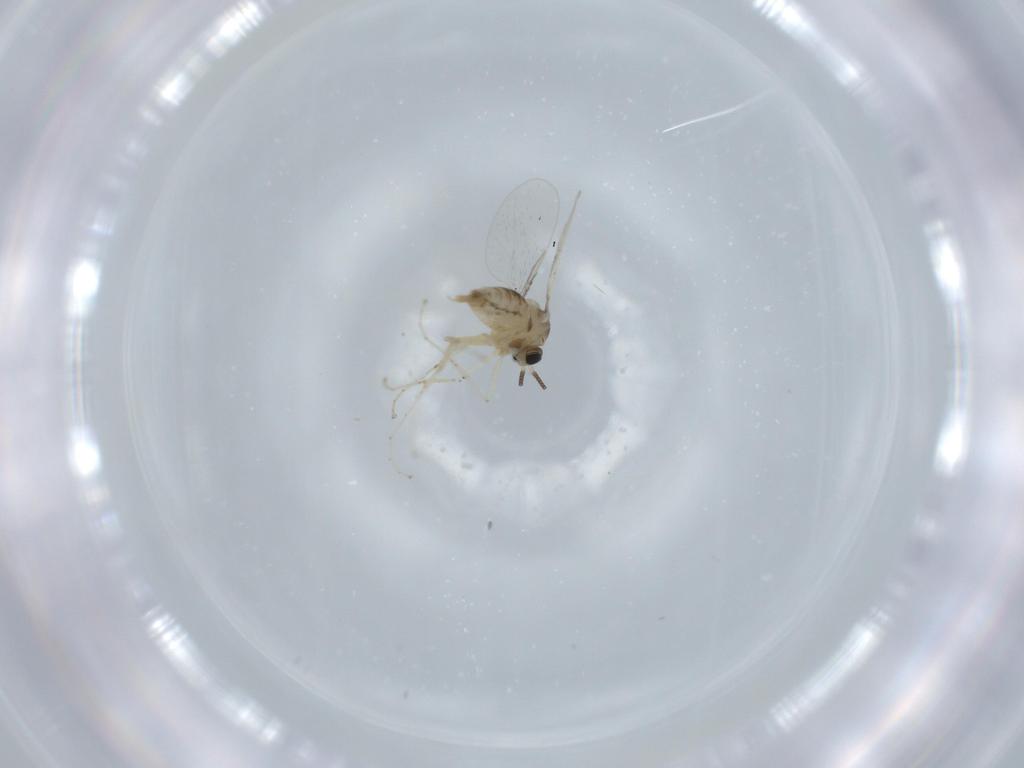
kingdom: Animalia
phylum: Arthropoda
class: Insecta
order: Diptera
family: Cecidomyiidae
